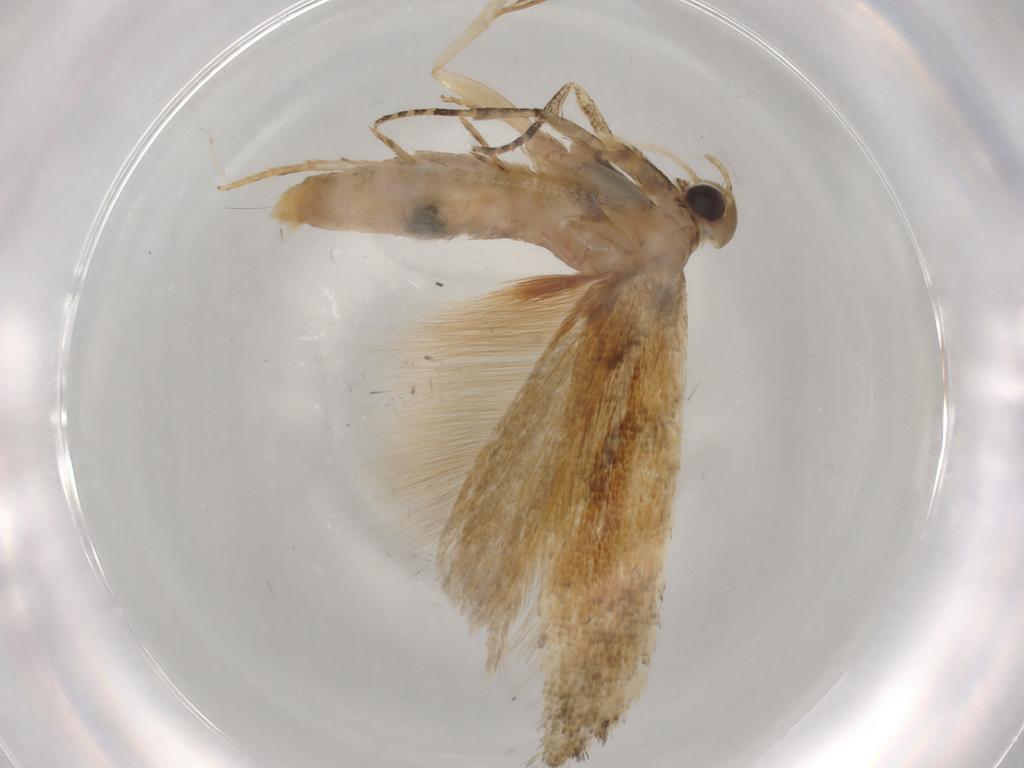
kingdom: Animalia
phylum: Arthropoda
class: Insecta
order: Lepidoptera
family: Gelechiidae
